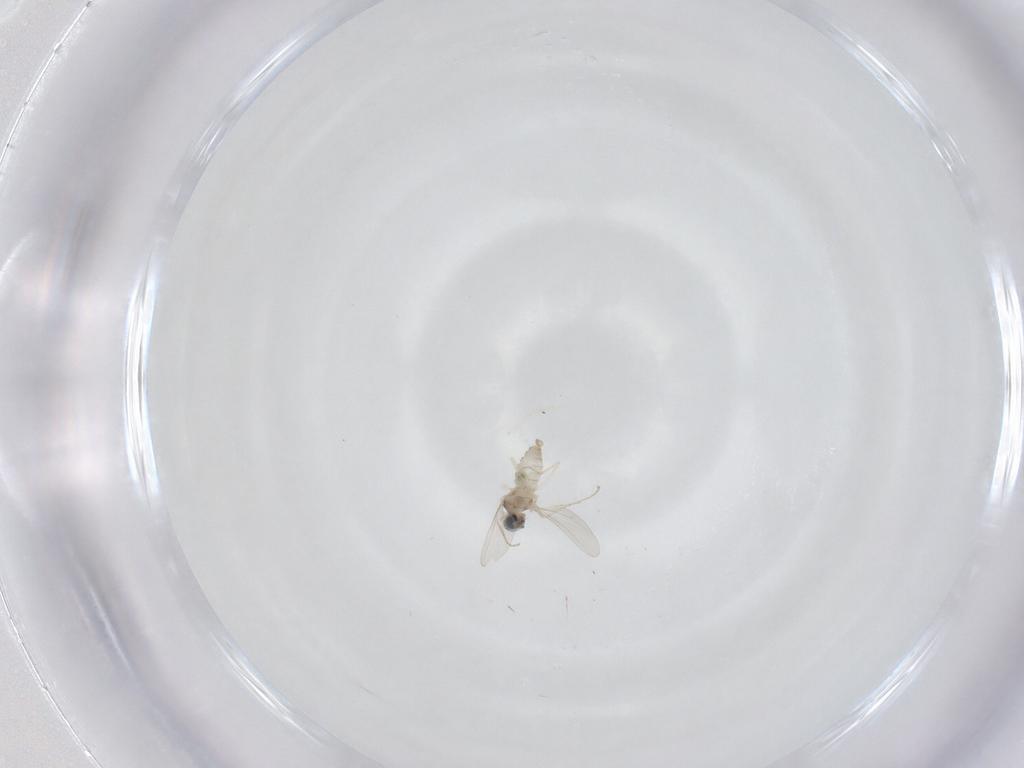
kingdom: Animalia
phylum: Arthropoda
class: Insecta
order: Diptera
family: Cecidomyiidae
